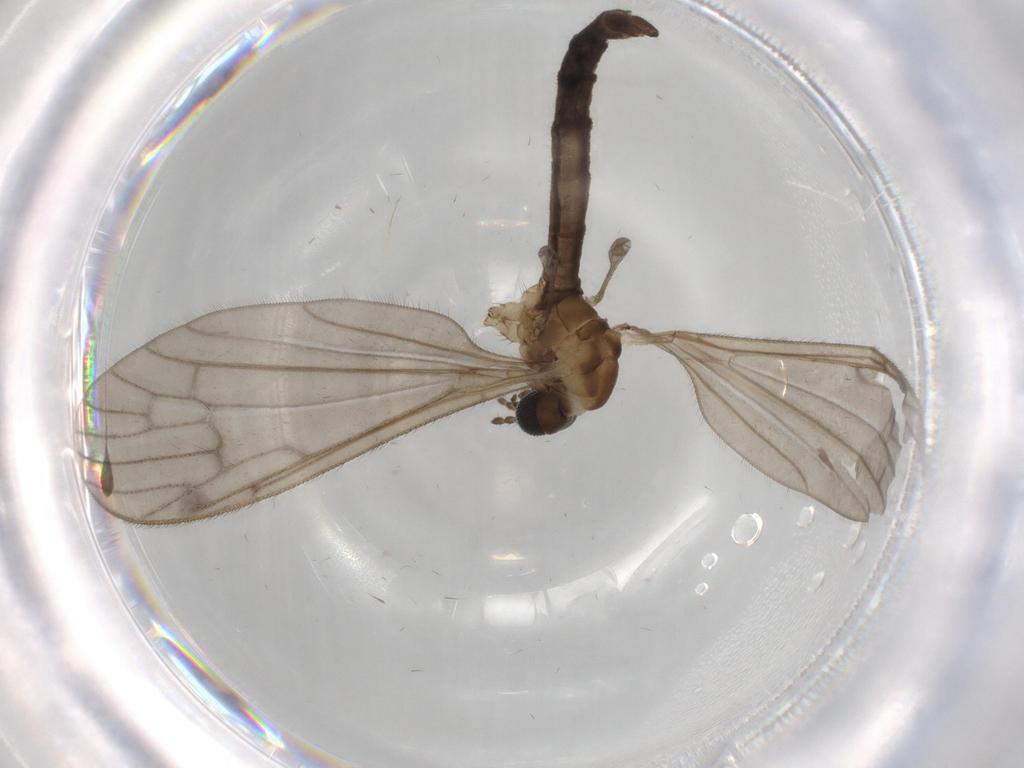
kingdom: Animalia
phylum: Arthropoda
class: Insecta
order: Diptera
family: Limoniidae
